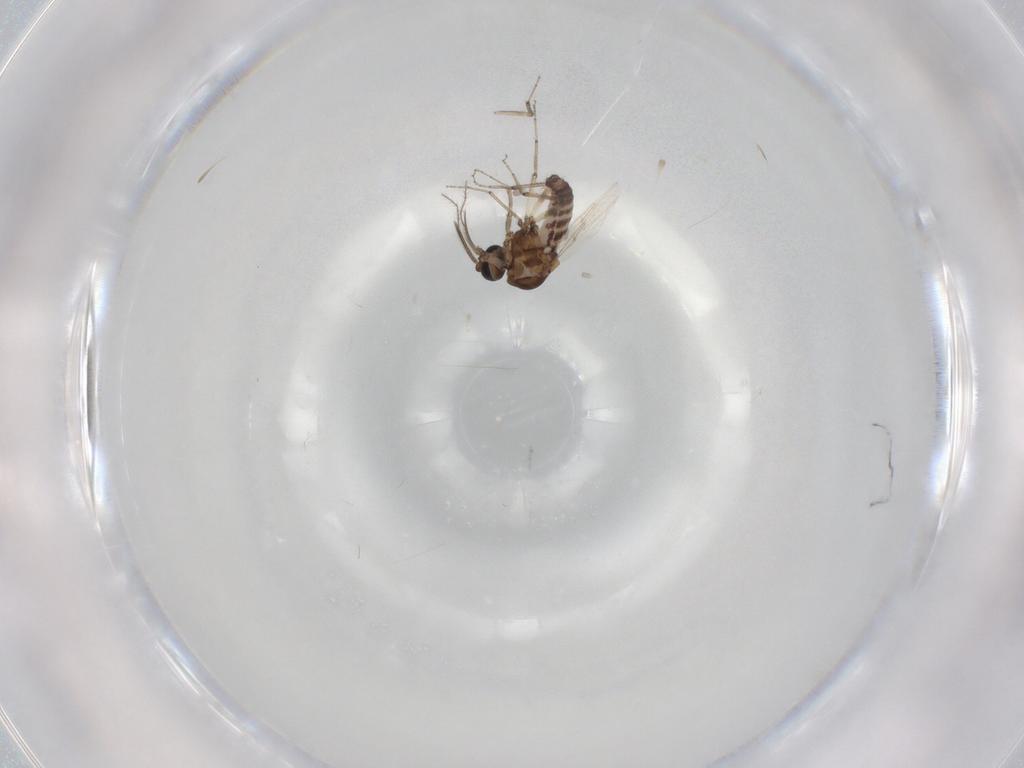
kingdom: Animalia
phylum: Arthropoda
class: Insecta
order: Diptera
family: Ceratopogonidae
